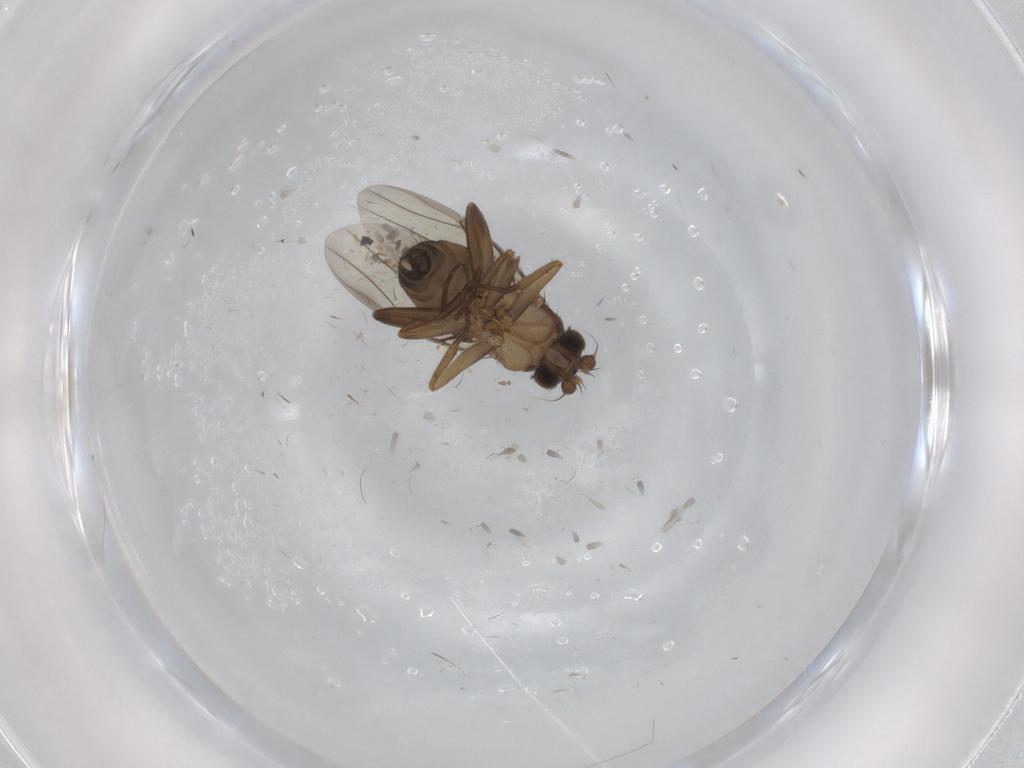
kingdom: Animalia
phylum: Arthropoda
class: Insecta
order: Diptera
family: Phoridae
